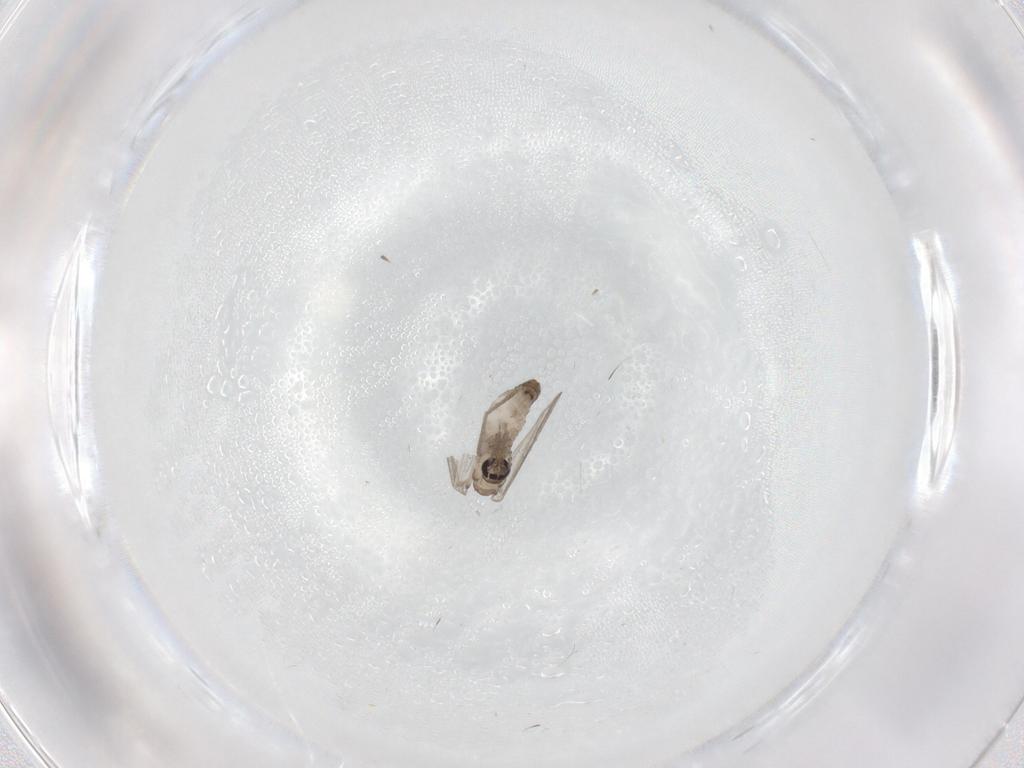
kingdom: Animalia
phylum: Arthropoda
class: Insecta
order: Diptera
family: Psychodidae
